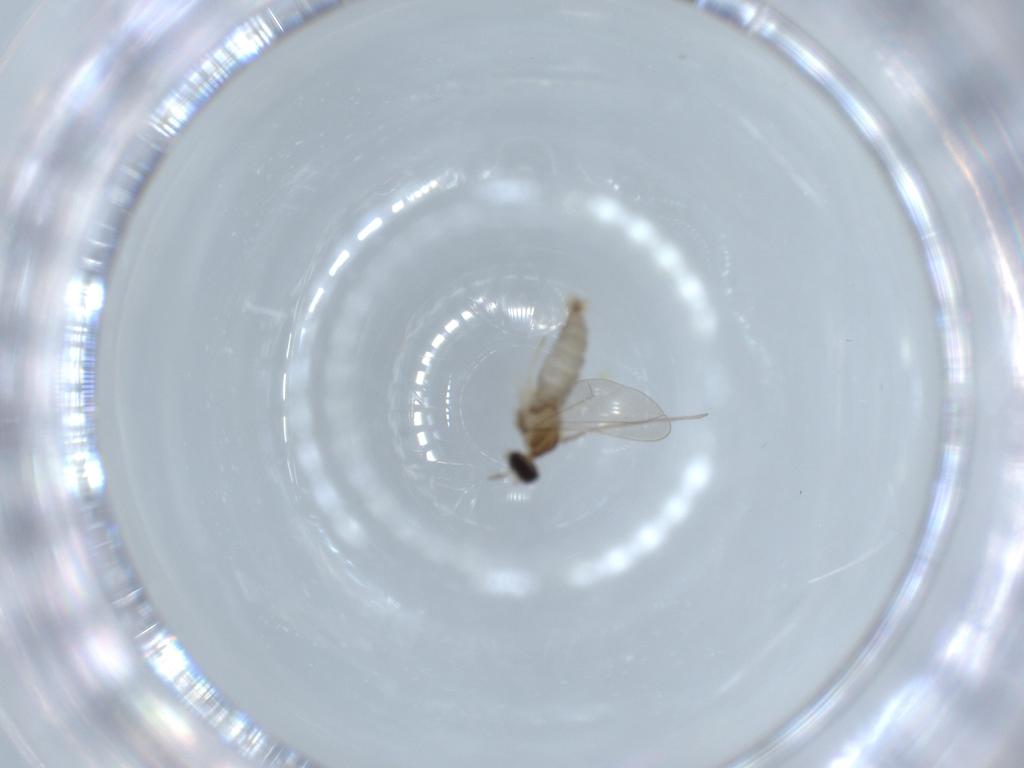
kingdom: Animalia
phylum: Arthropoda
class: Insecta
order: Diptera
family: Sciaridae
